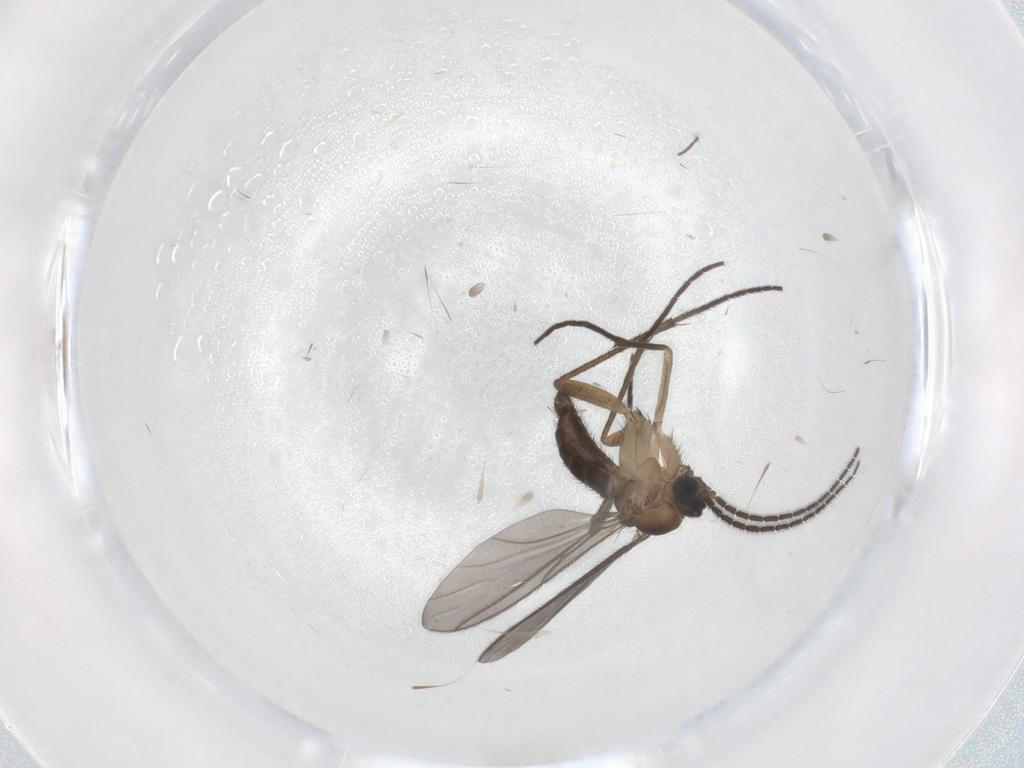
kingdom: Animalia
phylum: Arthropoda
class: Insecta
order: Diptera
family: Sciaridae
